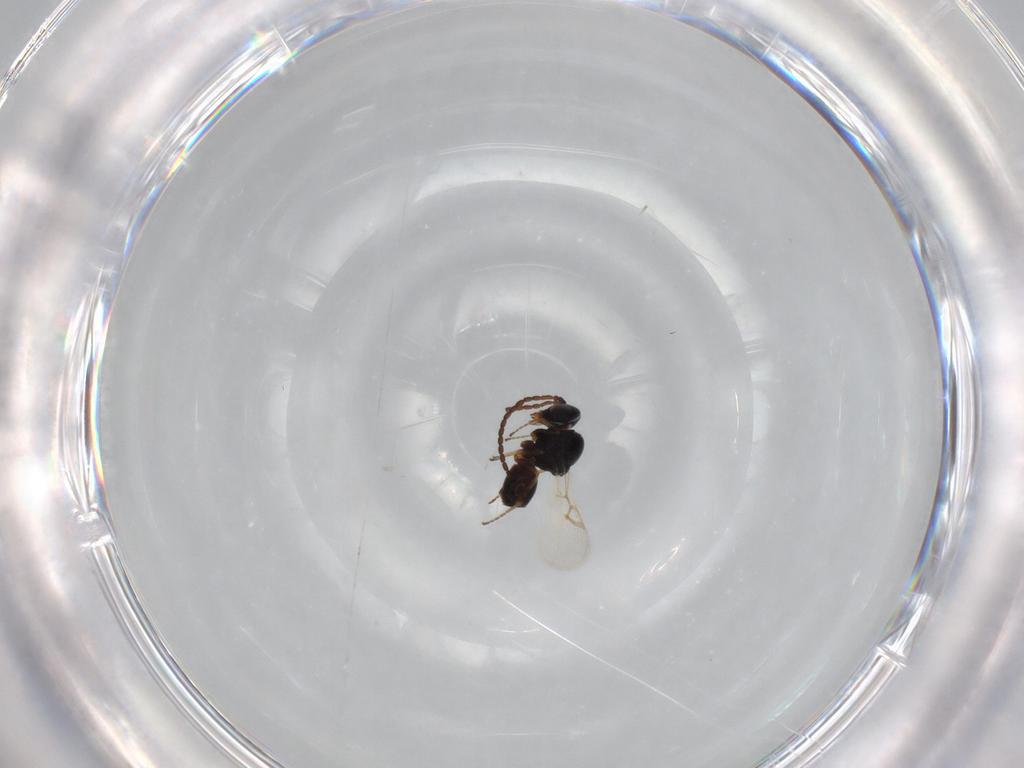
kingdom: Animalia
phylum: Arthropoda
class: Insecta
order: Hymenoptera
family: Figitidae
